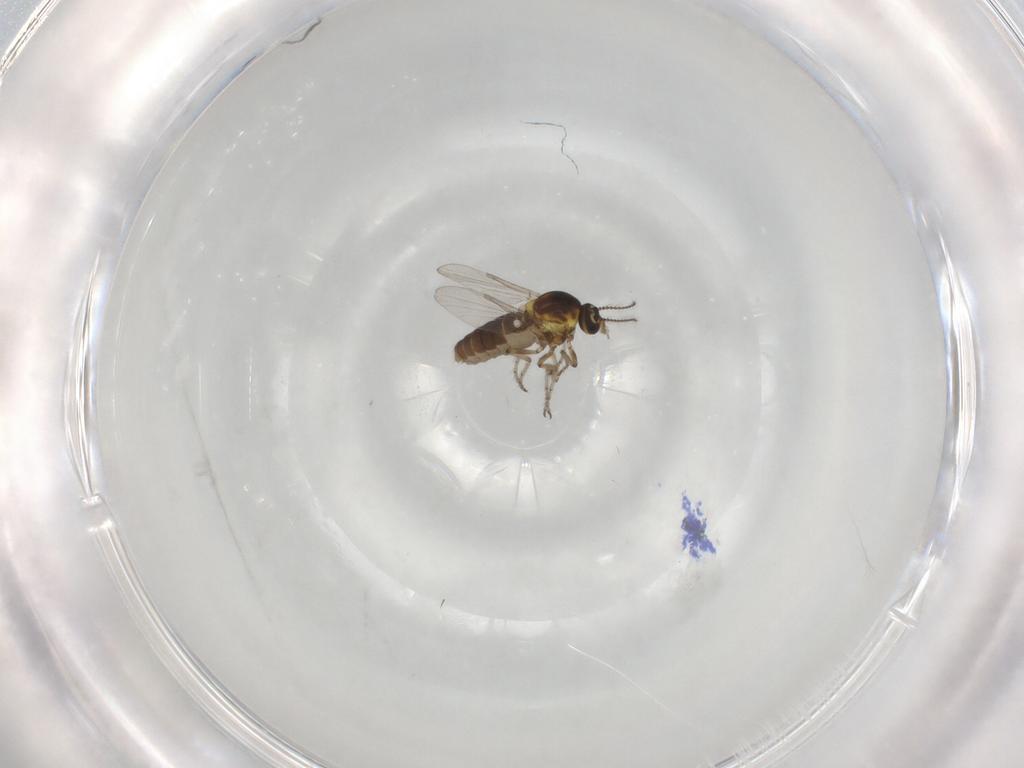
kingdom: Animalia
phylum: Arthropoda
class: Insecta
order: Diptera
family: Ceratopogonidae
